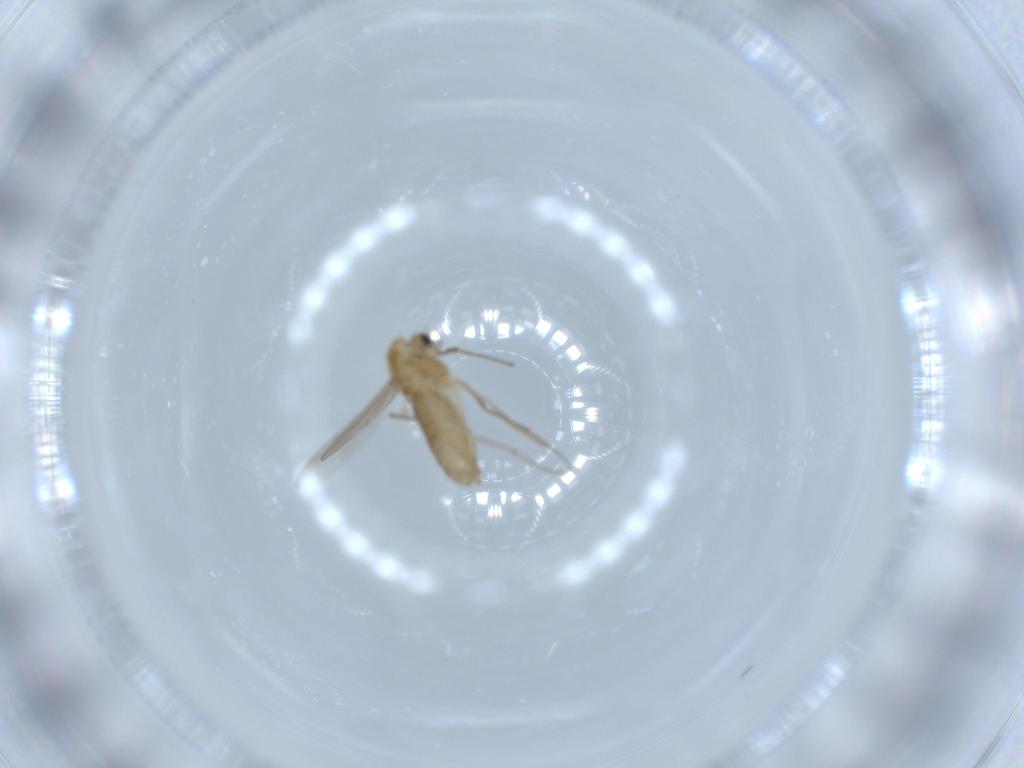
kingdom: Animalia
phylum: Arthropoda
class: Insecta
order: Diptera
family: Chironomidae
